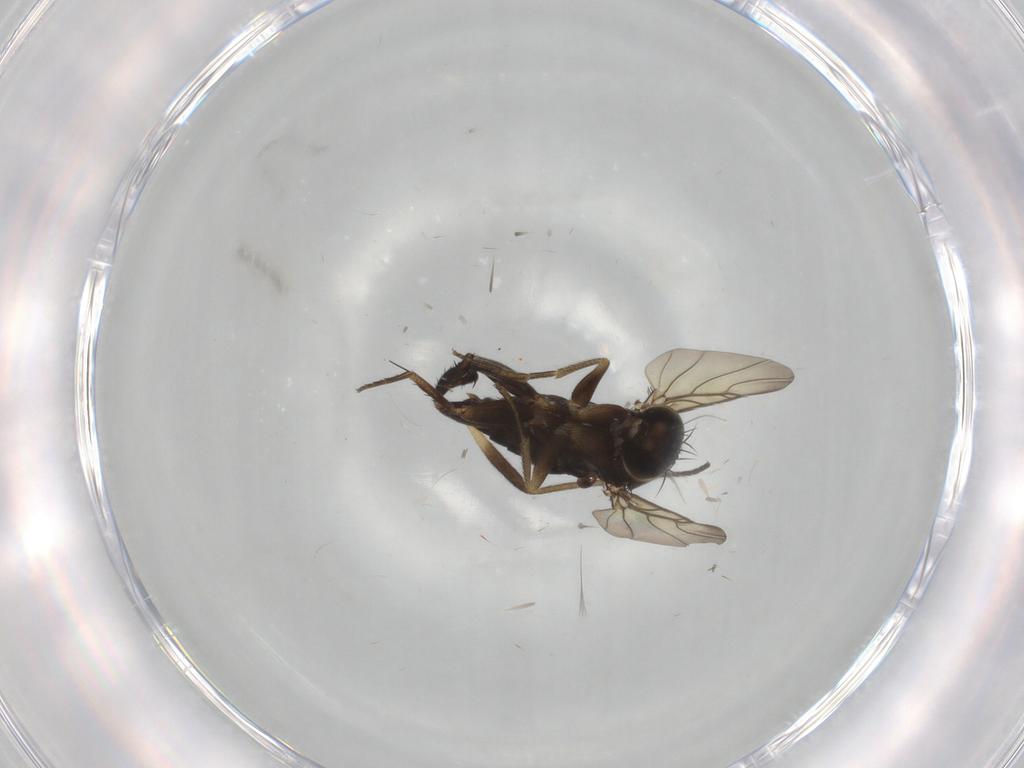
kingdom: Animalia
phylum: Arthropoda
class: Insecta
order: Diptera
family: Phoridae
